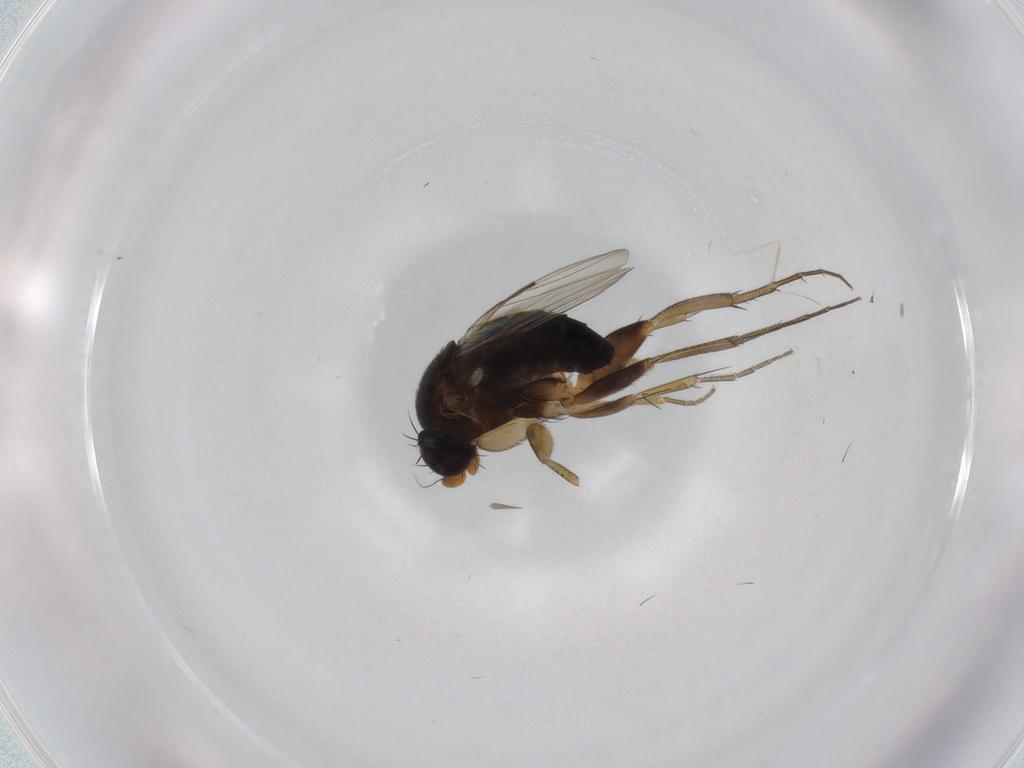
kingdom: Animalia
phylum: Arthropoda
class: Insecta
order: Diptera
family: Phoridae
